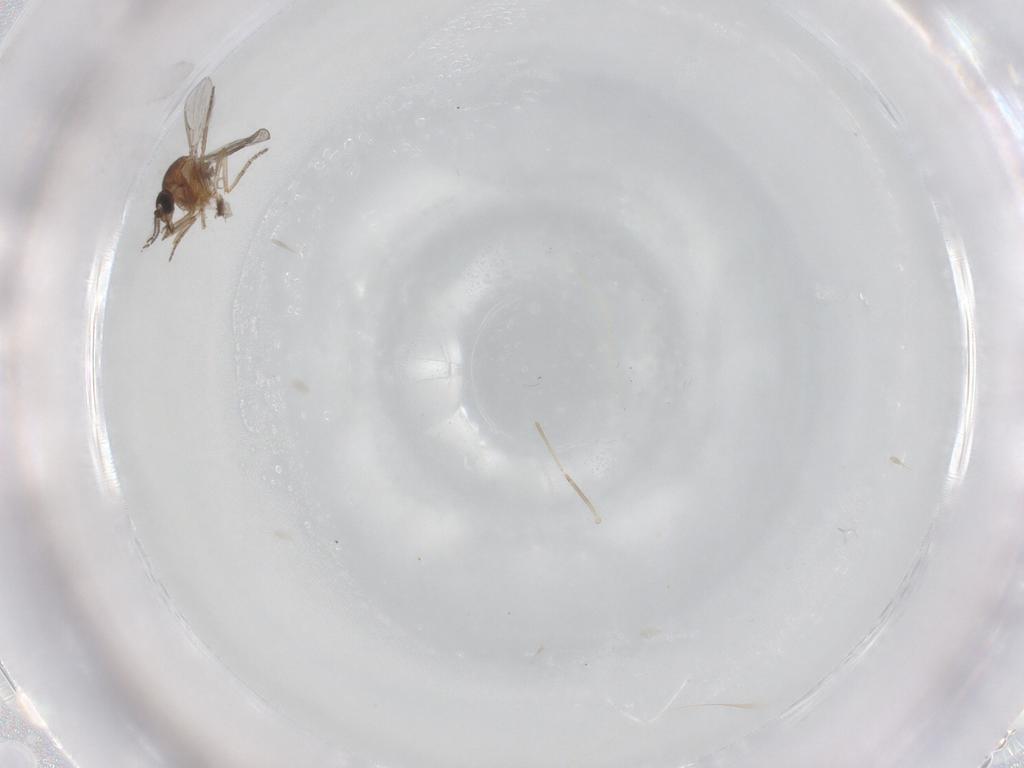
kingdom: Animalia
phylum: Arthropoda
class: Insecta
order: Diptera
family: Ceratopogonidae
